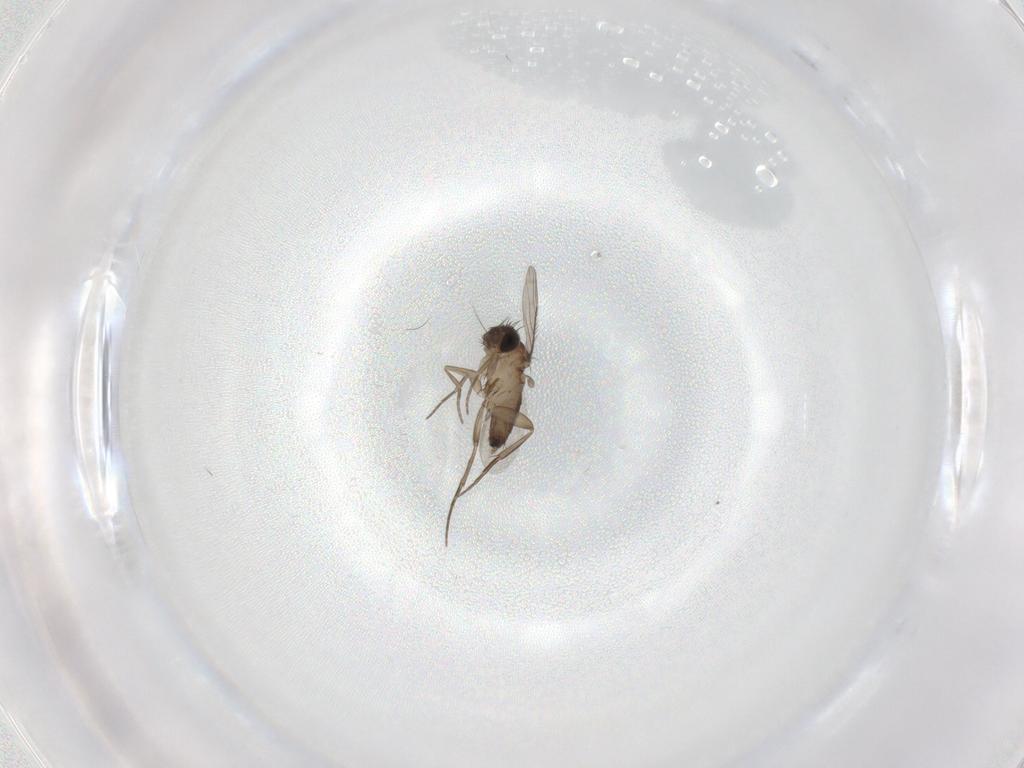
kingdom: Animalia
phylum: Arthropoda
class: Insecta
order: Diptera
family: Phoridae
